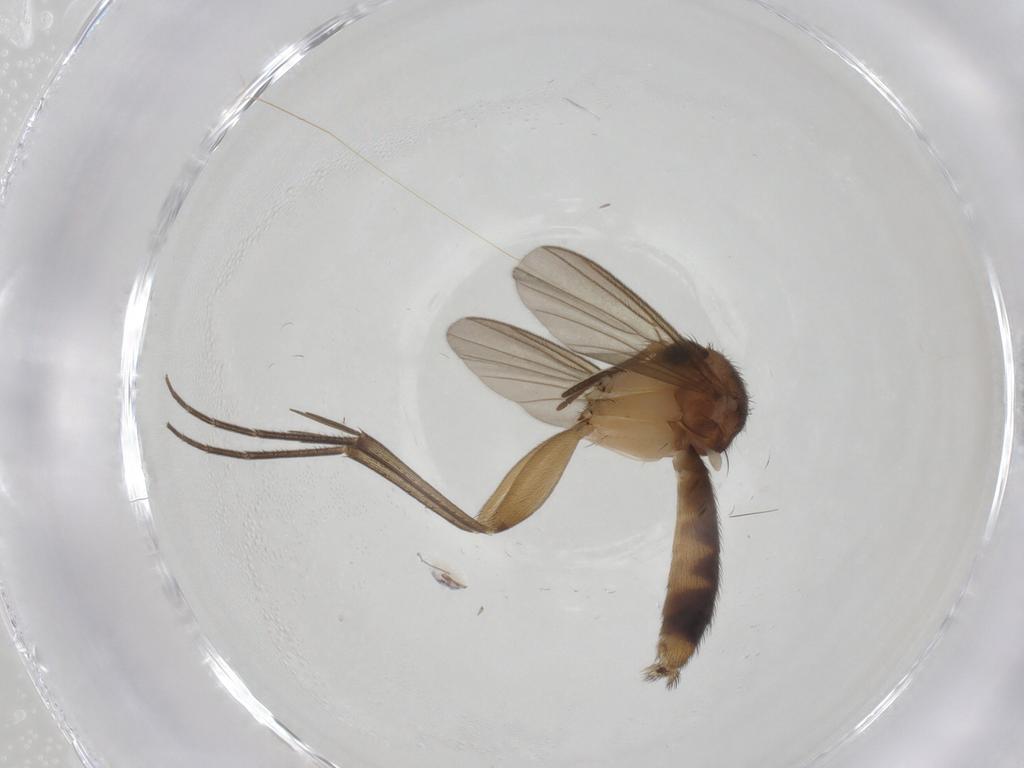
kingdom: Animalia
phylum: Arthropoda
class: Insecta
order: Diptera
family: Mycetophilidae
